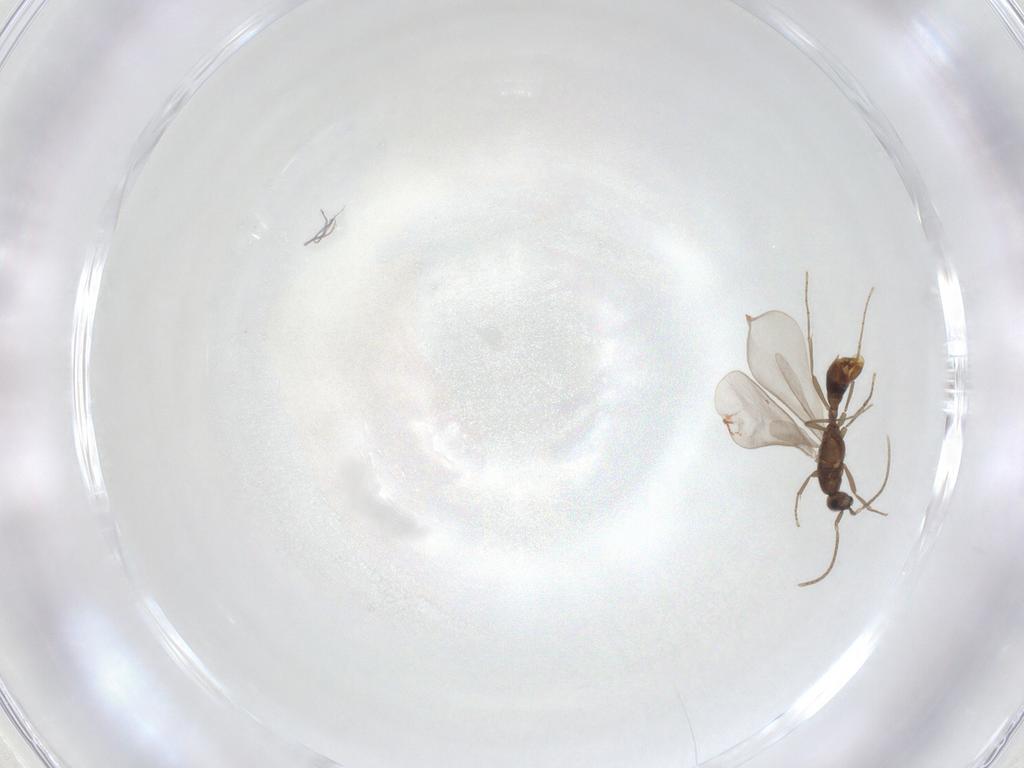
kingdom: Animalia
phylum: Arthropoda
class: Insecta
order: Hymenoptera
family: Formicidae
